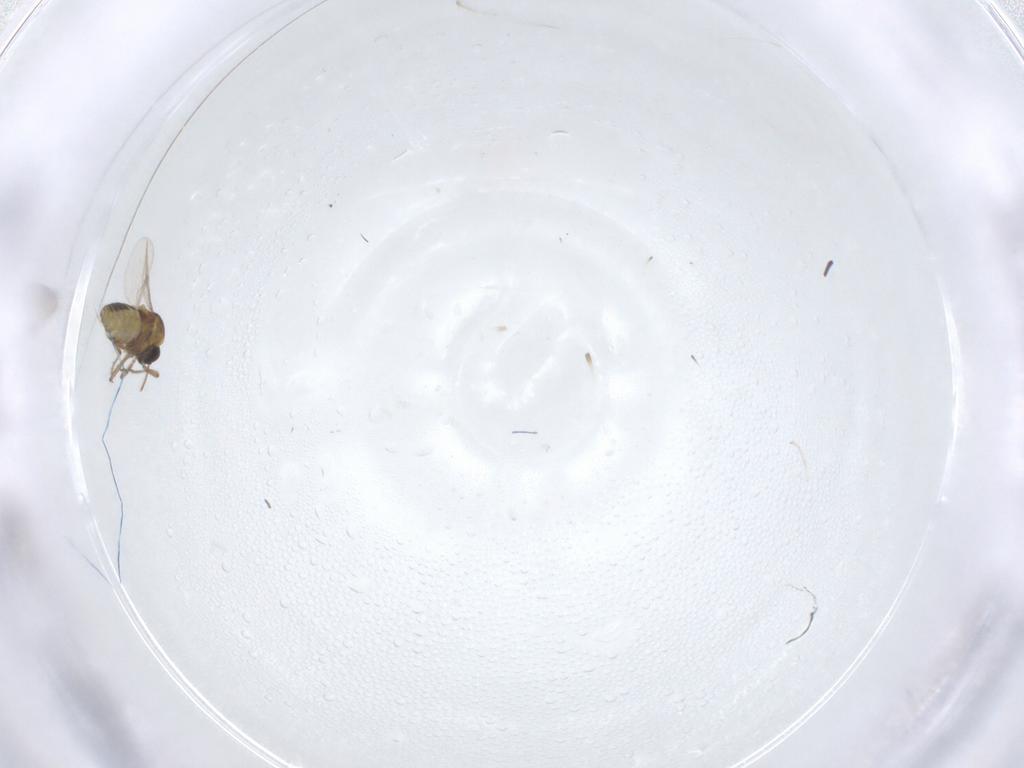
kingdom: Animalia
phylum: Arthropoda
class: Insecta
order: Diptera
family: Ceratopogonidae
